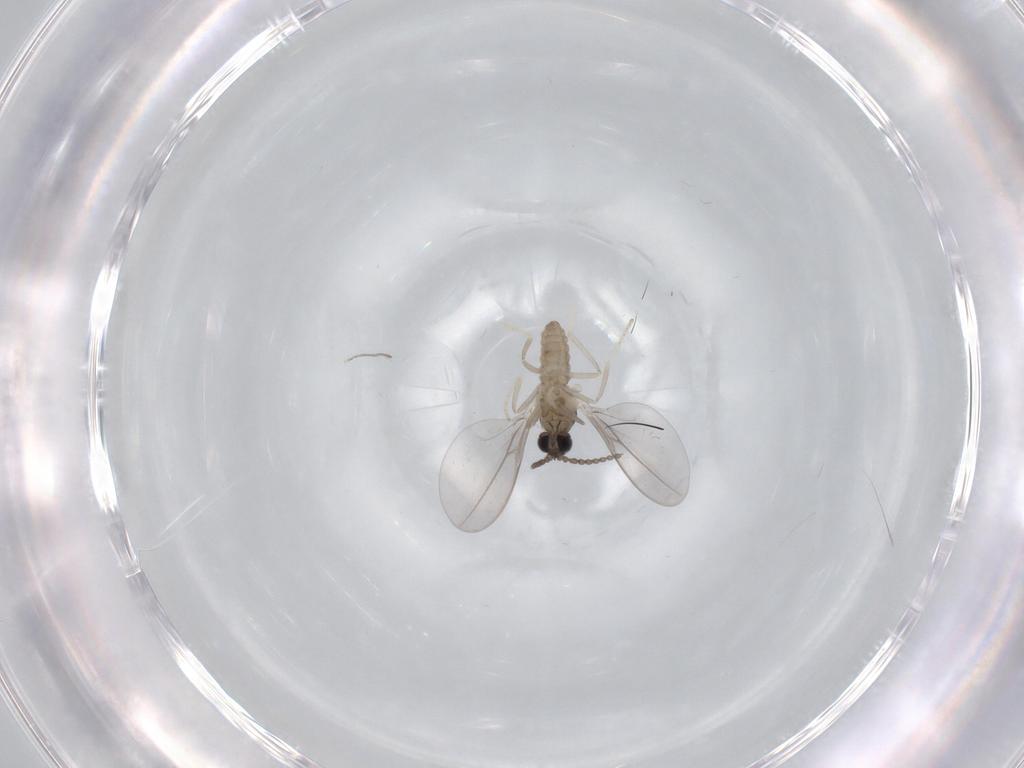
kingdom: Animalia
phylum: Arthropoda
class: Insecta
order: Diptera
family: Cecidomyiidae
